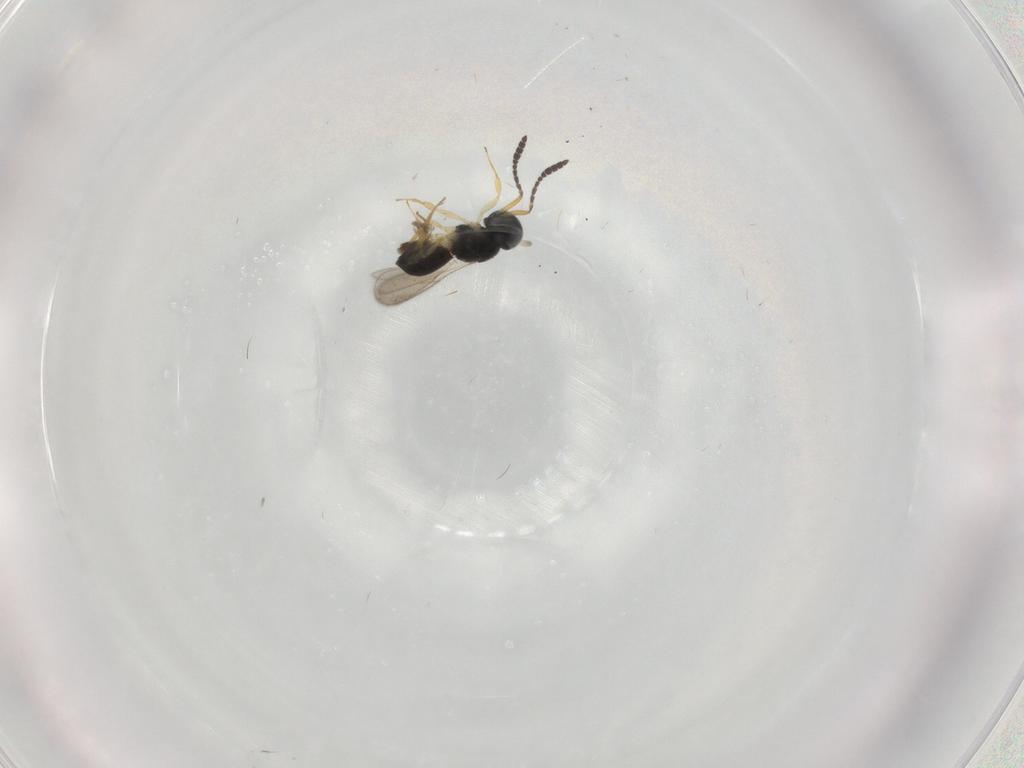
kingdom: Animalia
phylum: Arthropoda
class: Insecta
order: Hymenoptera
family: Scelionidae
